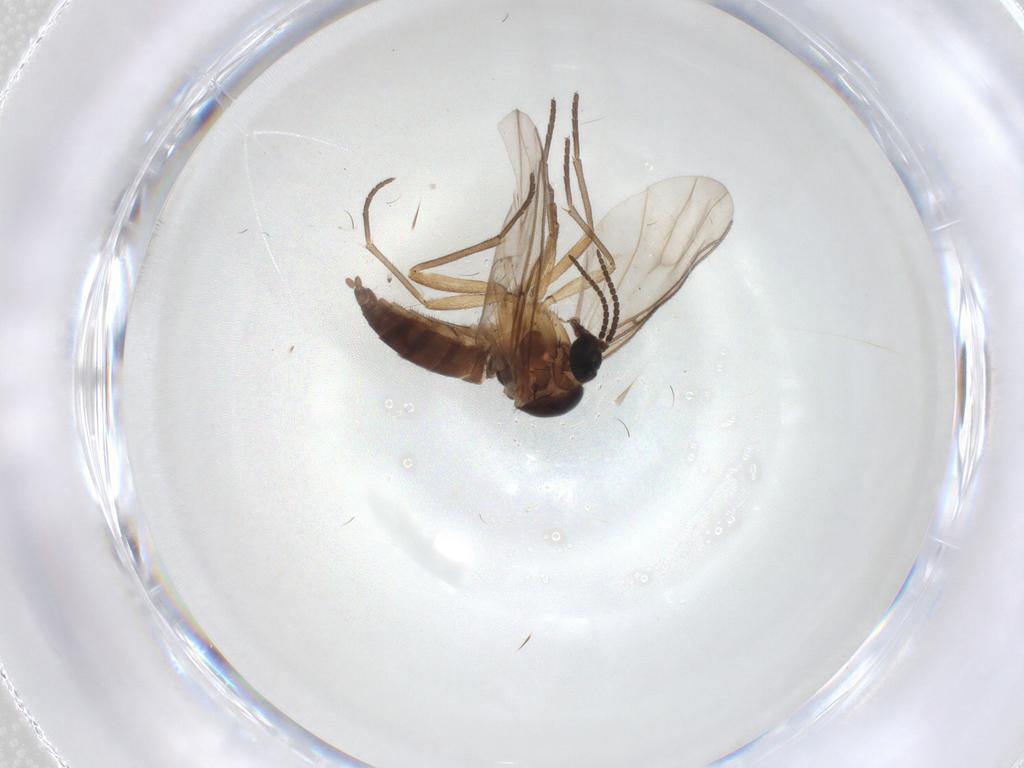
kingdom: Animalia
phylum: Arthropoda
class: Insecta
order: Diptera
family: Sciaridae
